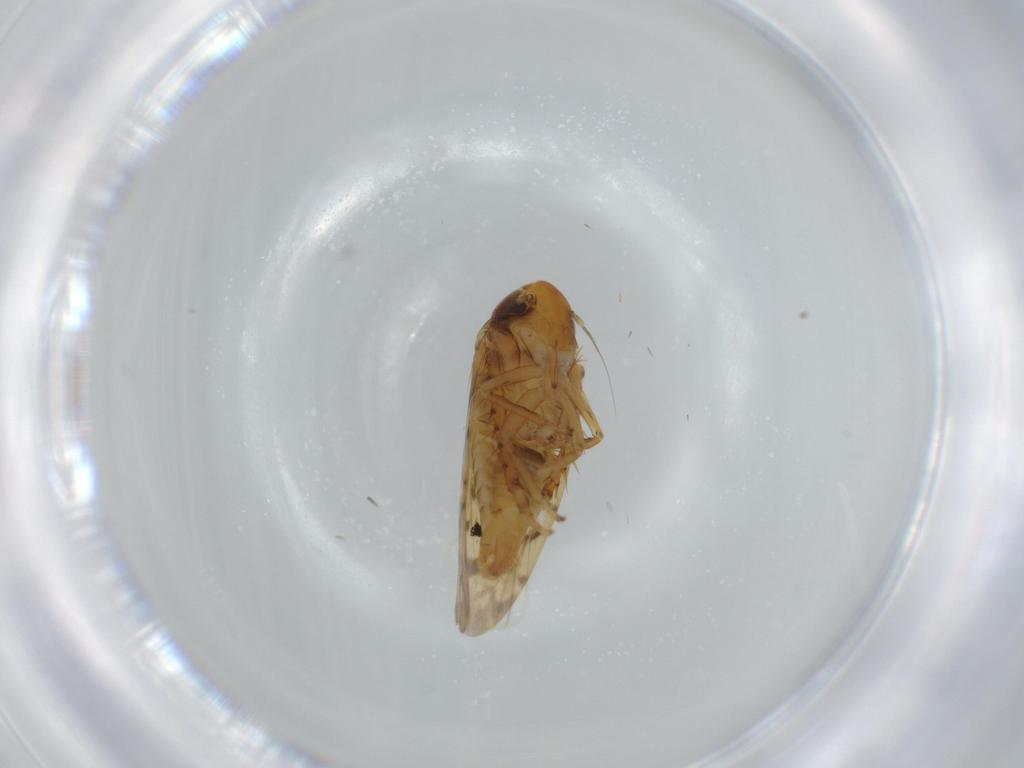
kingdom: Animalia
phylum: Arthropoda
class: Insecta
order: Hemiptera
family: Cicadellidae
